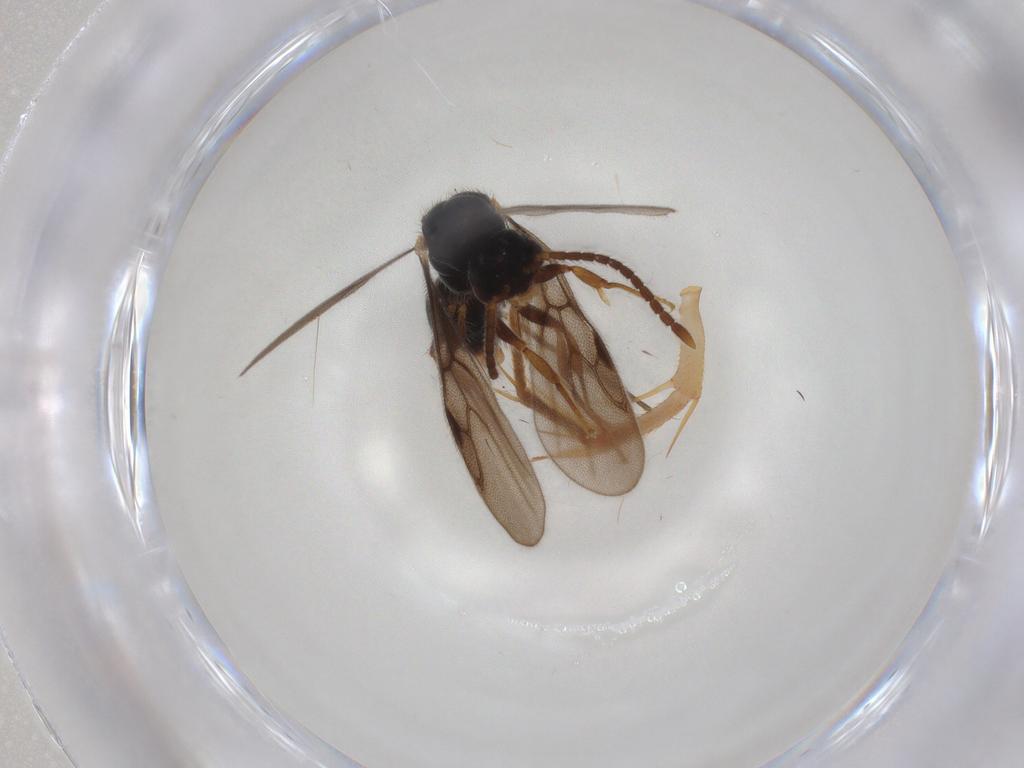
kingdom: Animalia
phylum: Arthropoda
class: Insecta
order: Hymenoptera
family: Formicidae
